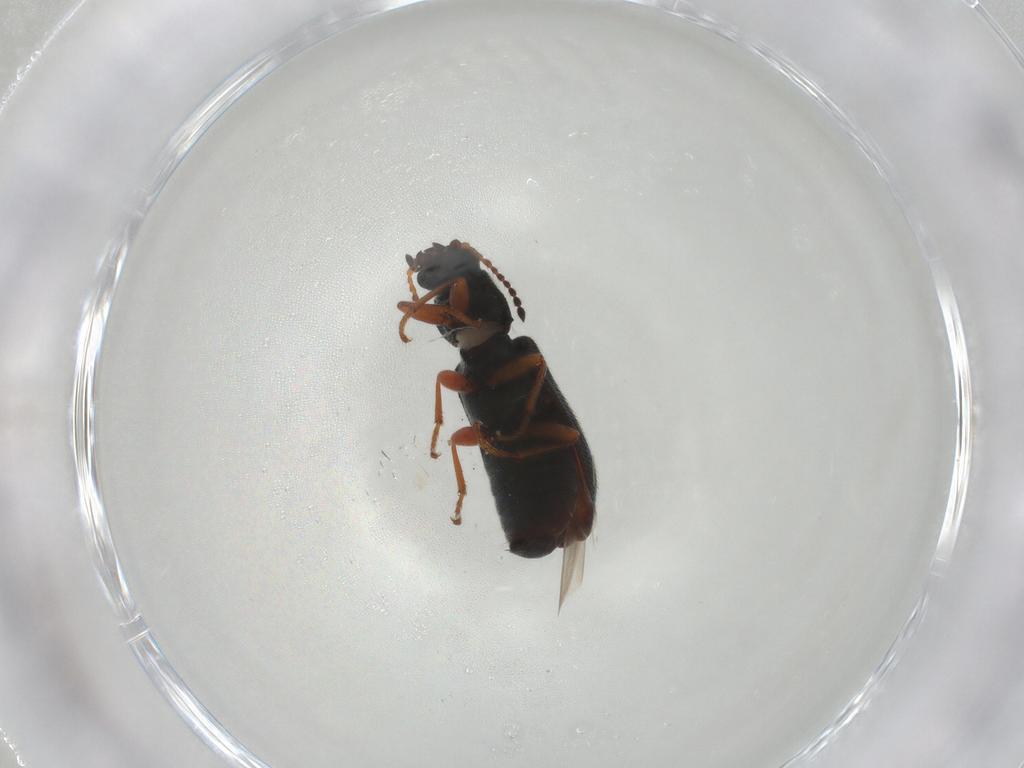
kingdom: Animalia
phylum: Arthropoda
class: Insecta
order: Coleoptera
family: Melyridae
